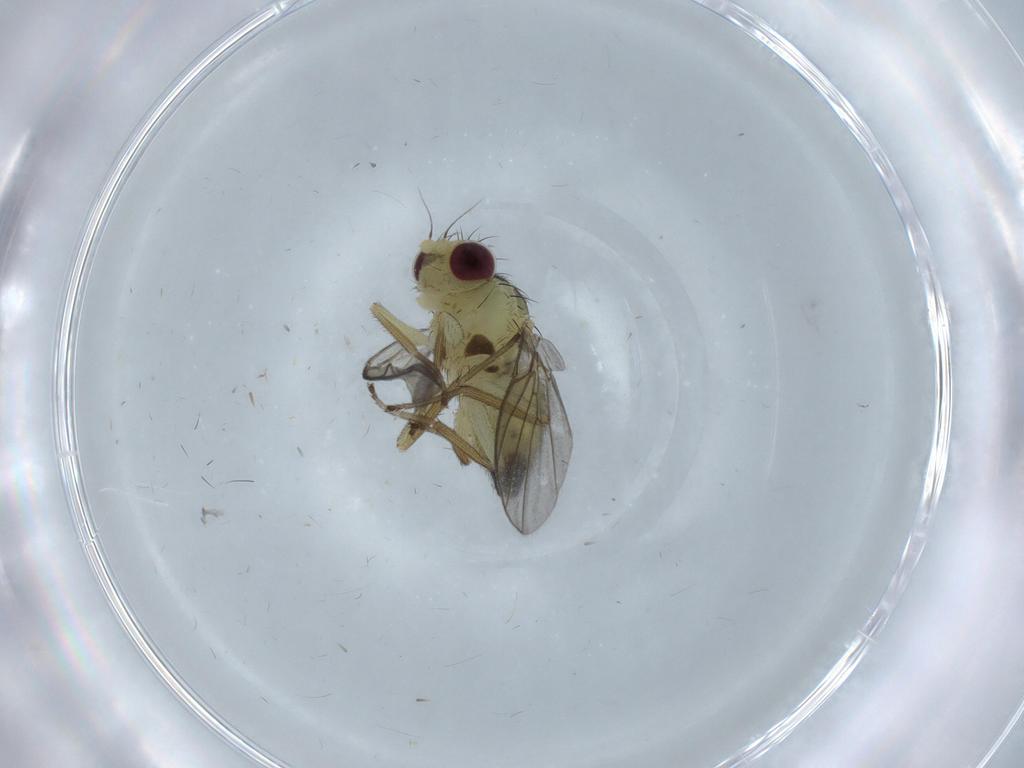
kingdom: Animalia
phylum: Arthropoda
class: Insecta
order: Diptera
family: Agromyzidae
